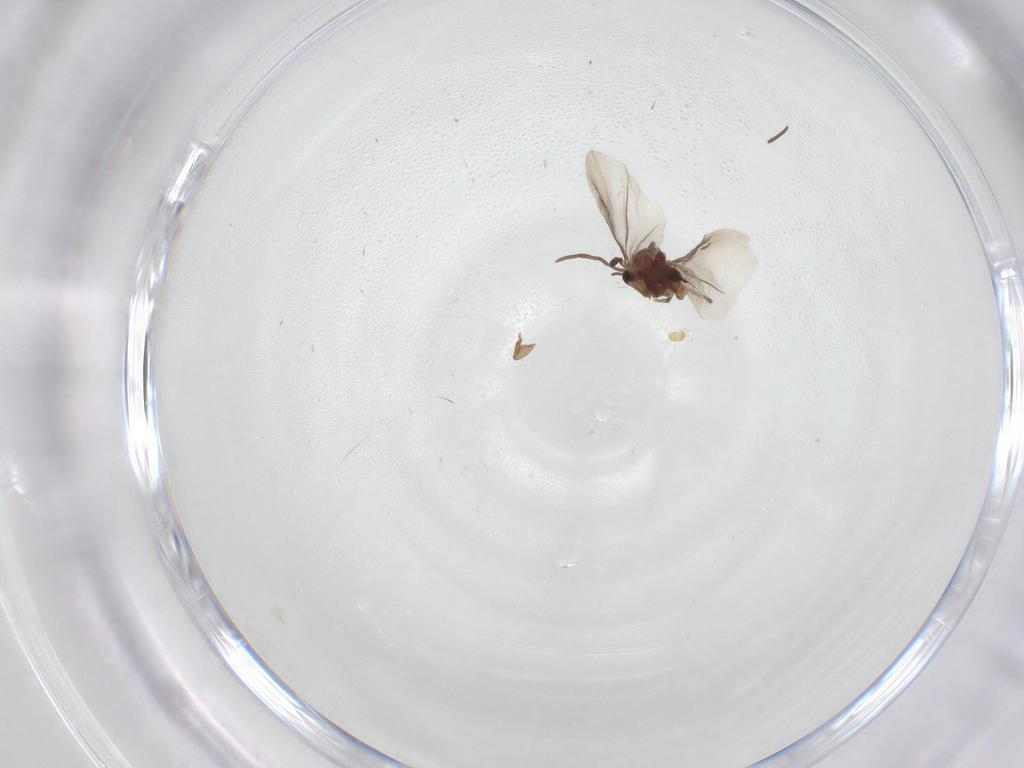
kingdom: Animalia
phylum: Arthropoda
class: Insecta
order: Strepsiptera
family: Myrmecolacidae
